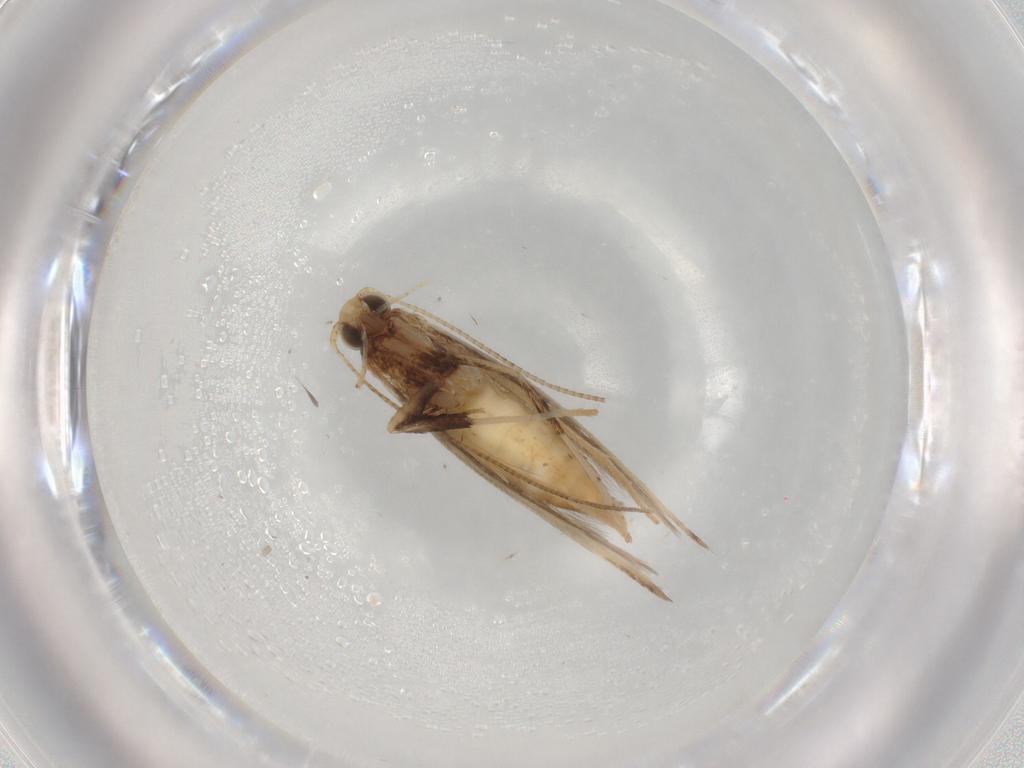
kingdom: Animalia
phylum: Arthropoda
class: Insecta
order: Lepidoptera
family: Gracillariidae
